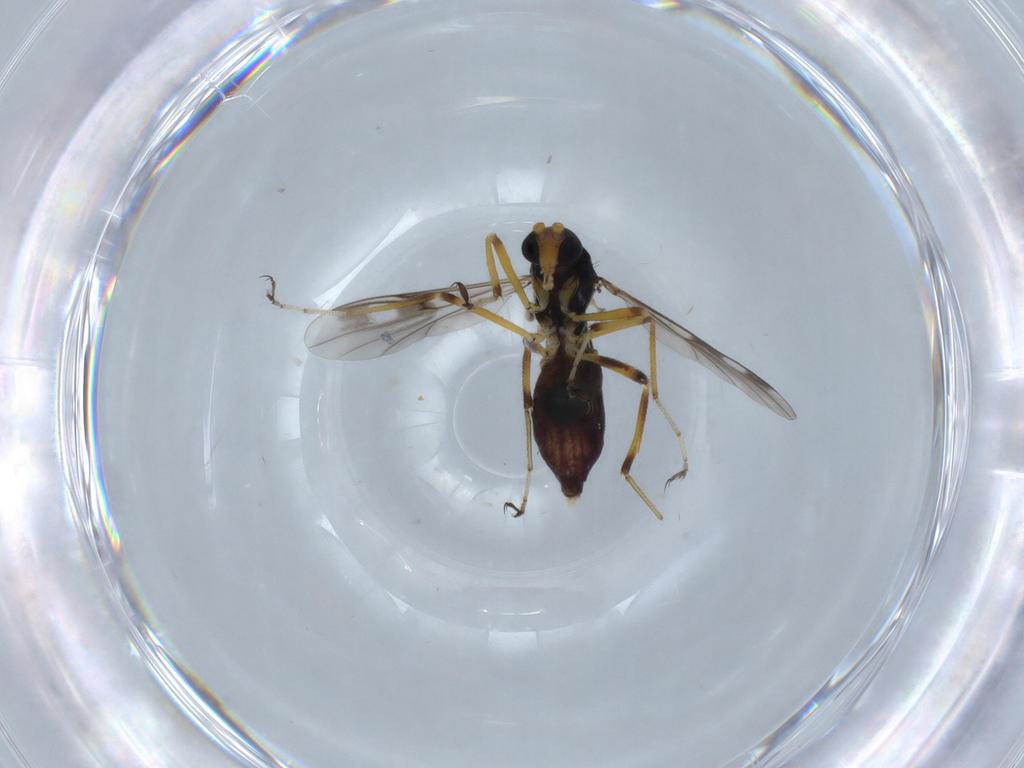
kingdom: Animalia
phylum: Arthropoda
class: Insecta
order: Diptera
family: Ceratopogonidae
